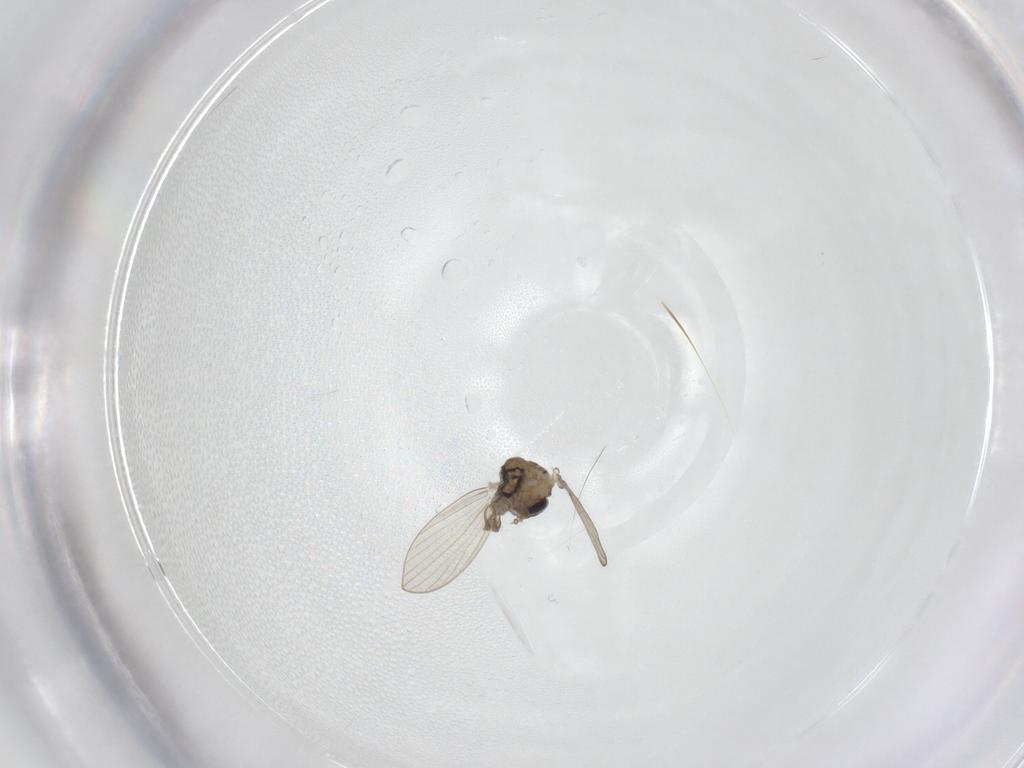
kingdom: Animalia
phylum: Arthropoda
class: Insecta
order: Diptera
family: Psychodidae
